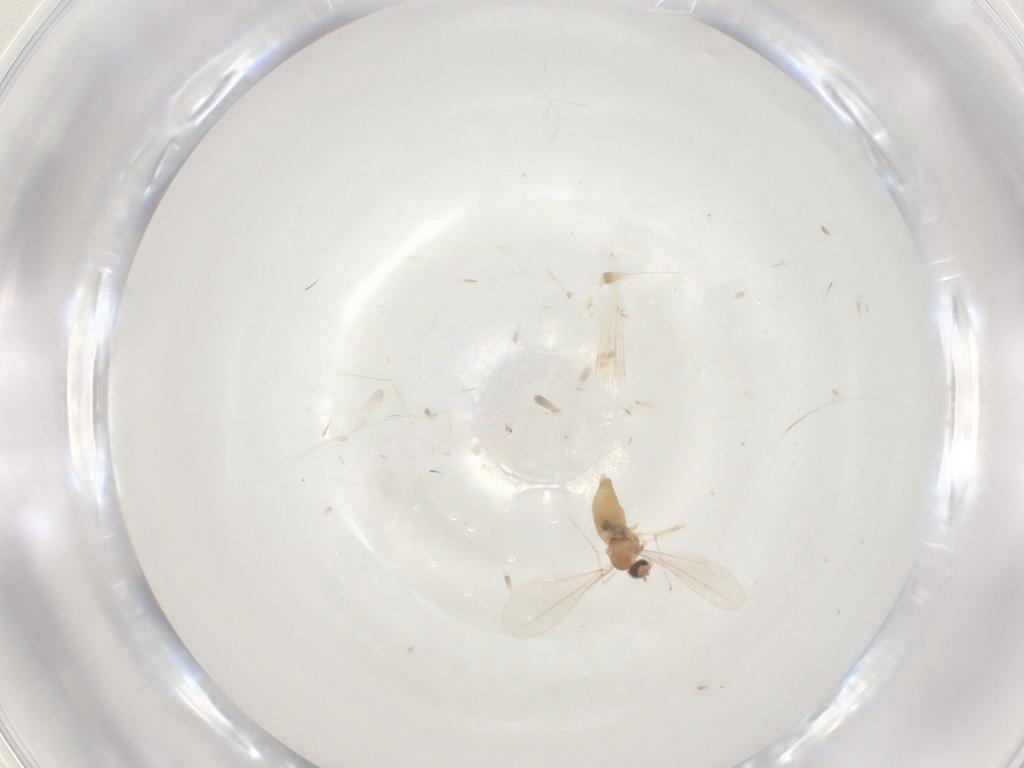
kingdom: Animalia
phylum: Arthropoda
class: Insecta
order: Diptera
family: Cecidomyiidae
